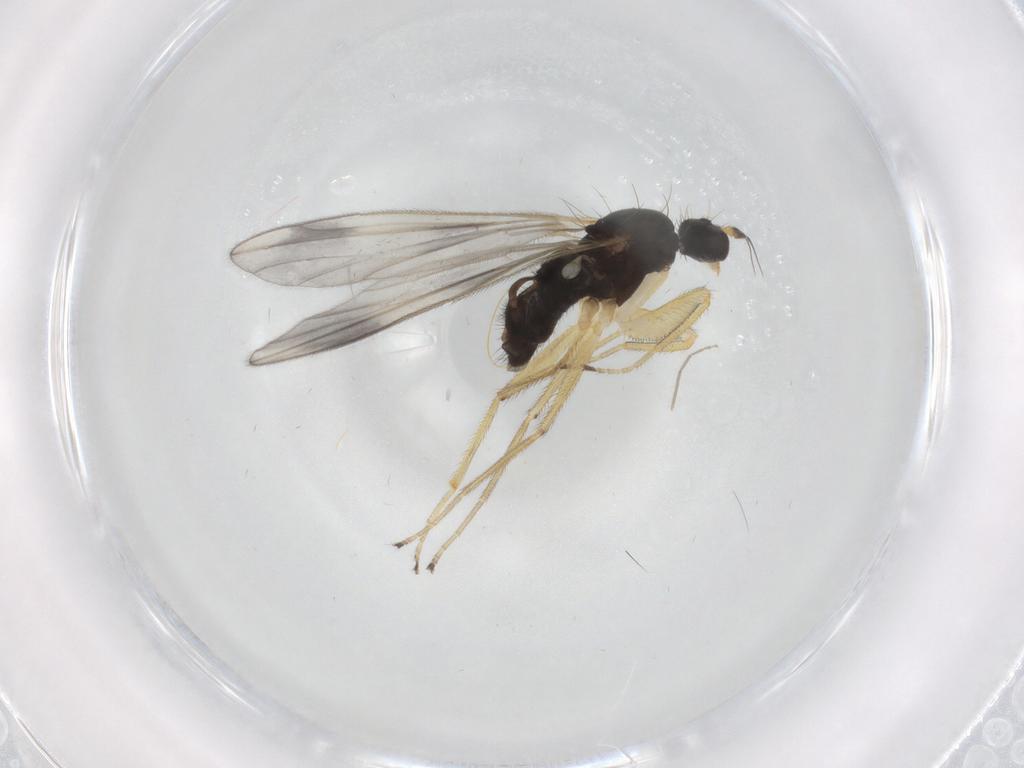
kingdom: Animalia
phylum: Arthropoda
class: Insecta
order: Diptera
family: Empididae
